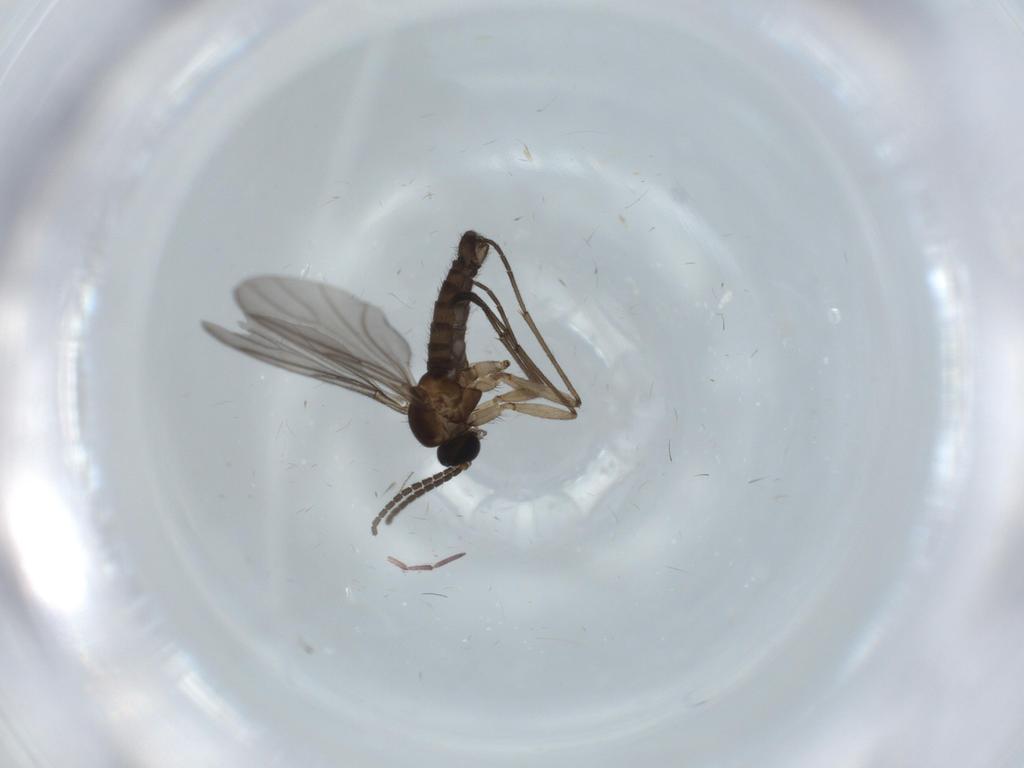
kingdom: Animalia
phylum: Arthropoda
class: Insecta
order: Diptera
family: Sciaridae
